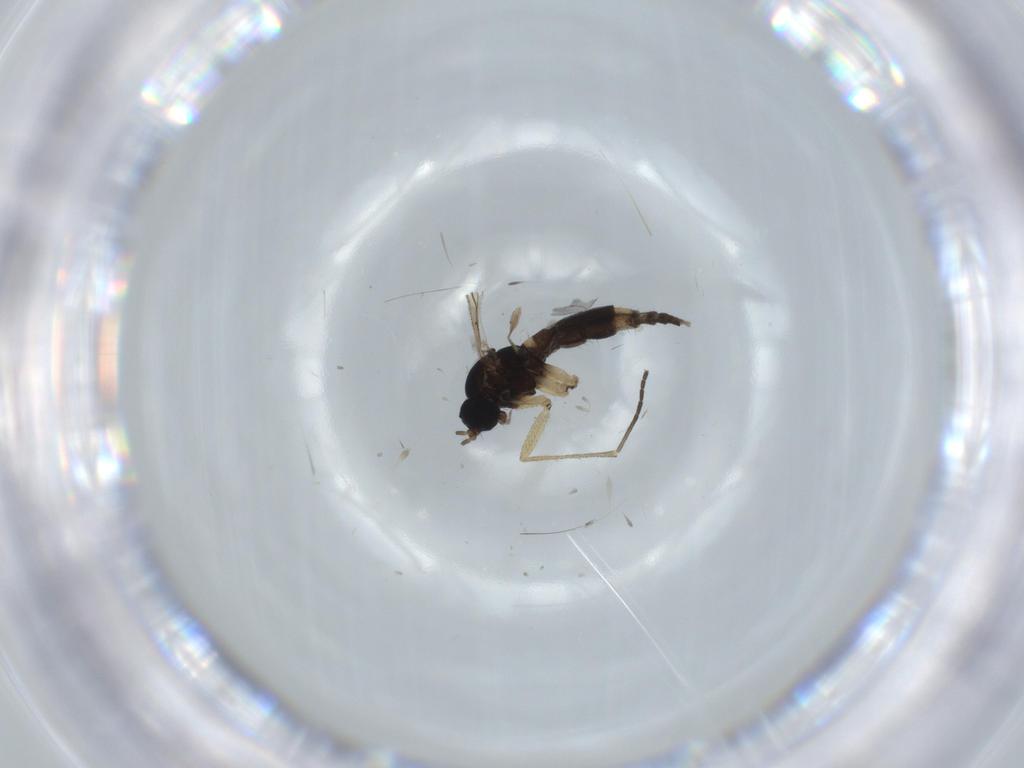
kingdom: Animalia
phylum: Arthropoda
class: Insecta
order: Diptera
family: Sciaridae
